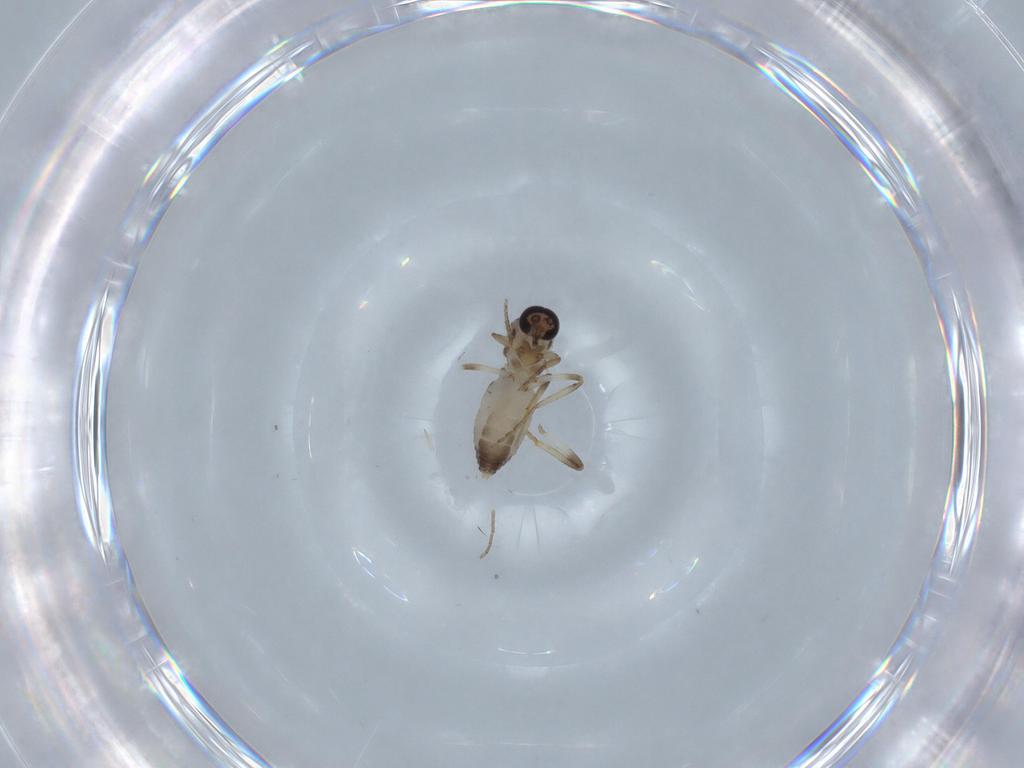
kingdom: Animalia
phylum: Arthropoda
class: Insecta
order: Diptera
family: Ceratopogonidae
